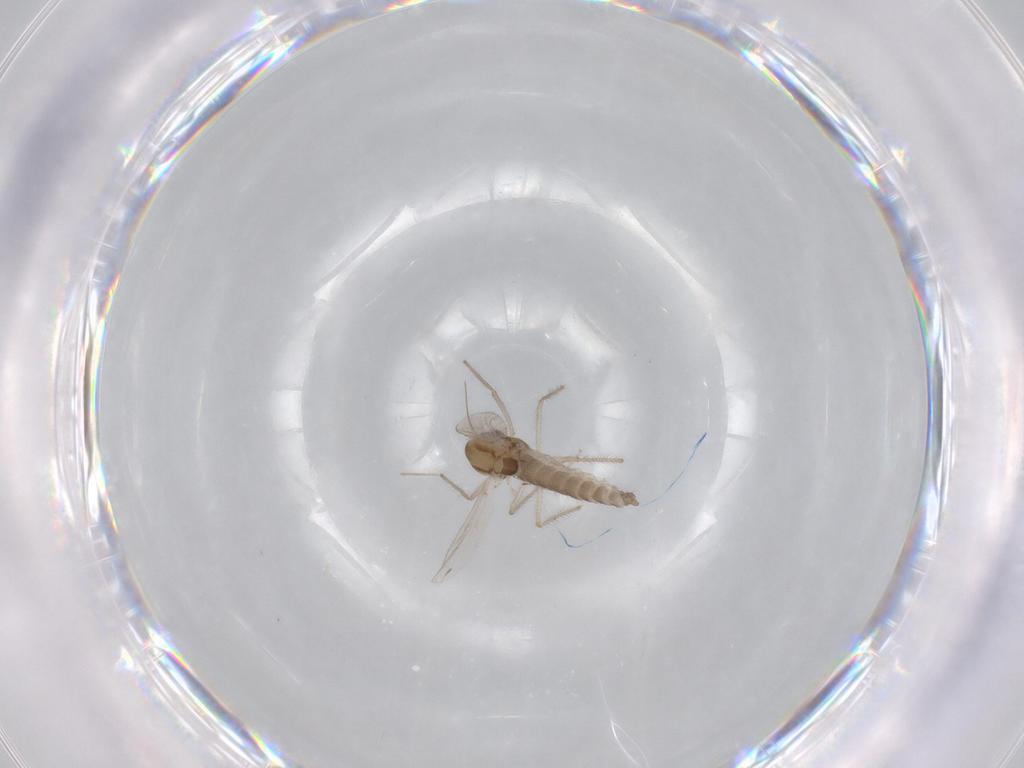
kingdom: Animalia
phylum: Arthropoda
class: Insecta
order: Diptera
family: Chironomidae
